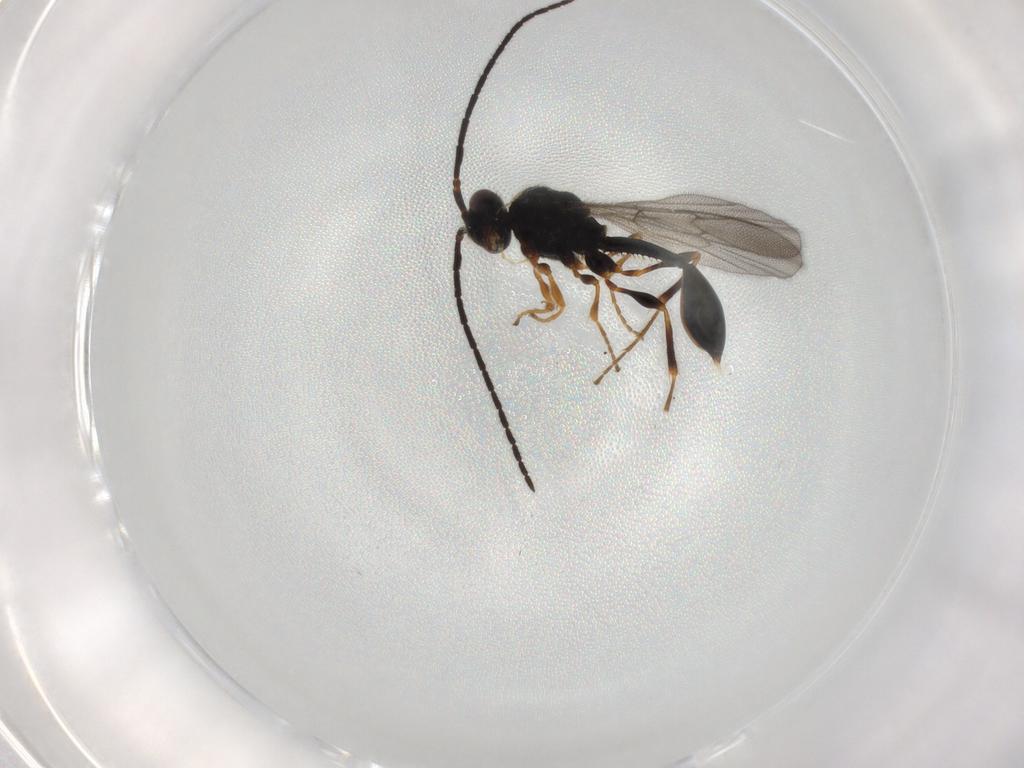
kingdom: Animalia
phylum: Arthropoda
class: Insecta
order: Hymenoptera
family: Diapriidae
